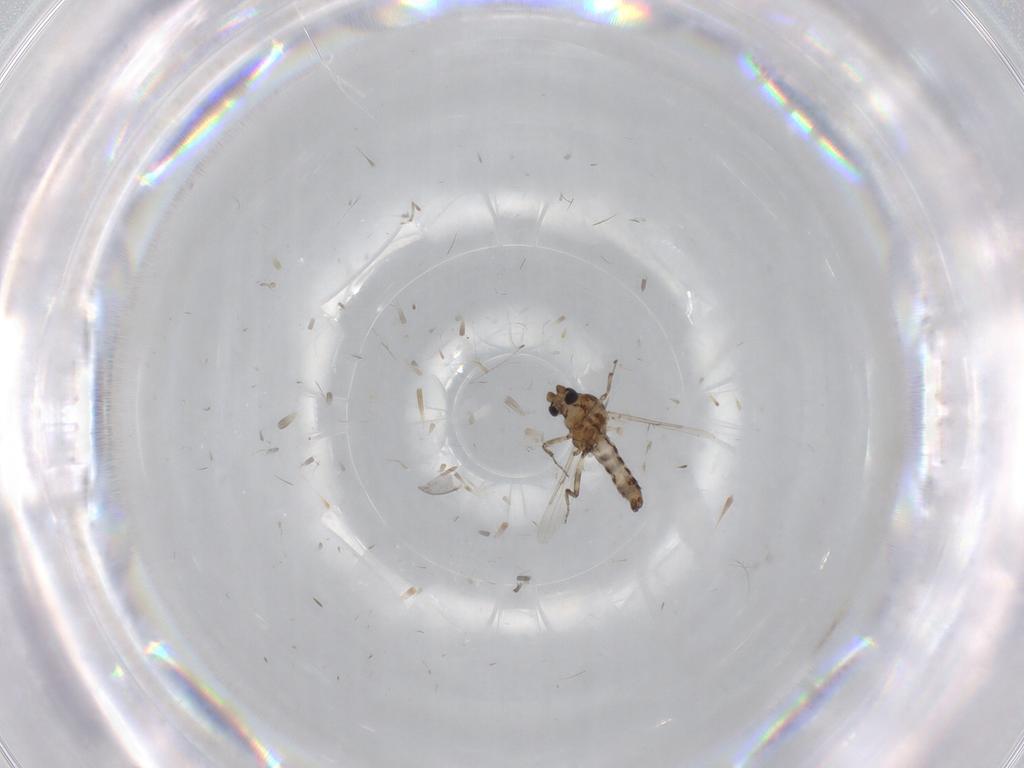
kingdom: Animalia
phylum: Arthropoda
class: Insecta
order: Diptera
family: Ceratopogonidae
